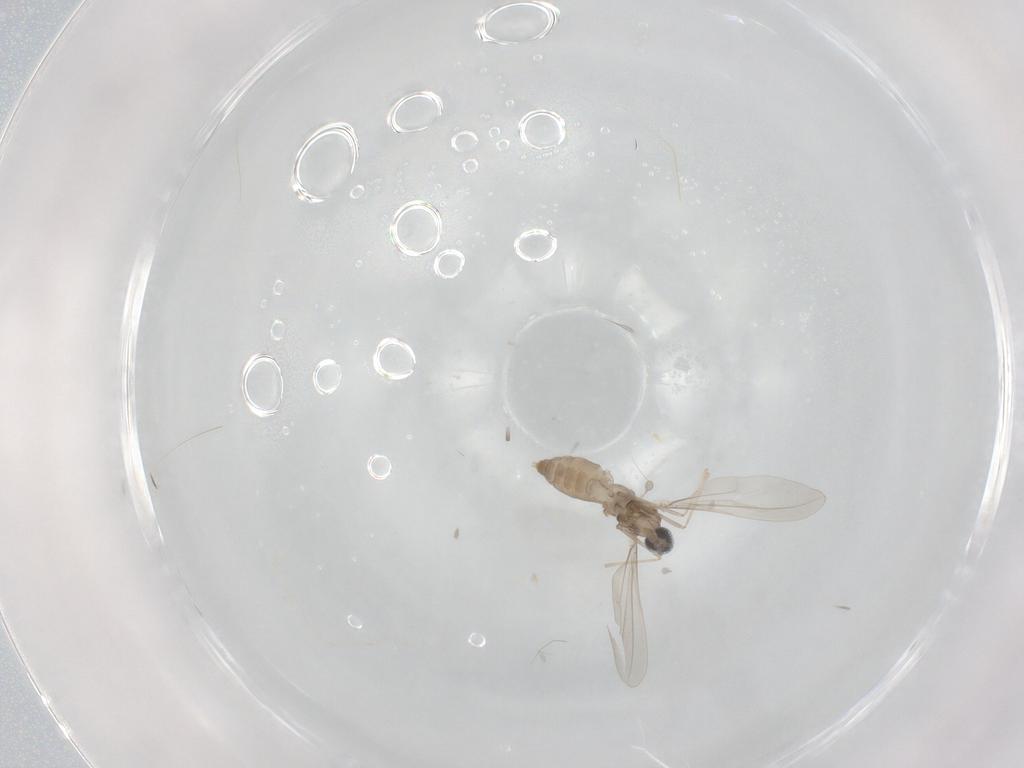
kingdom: Animalia
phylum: Arthropoda
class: Insecta
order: Diptera
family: Cecidomyiidae
